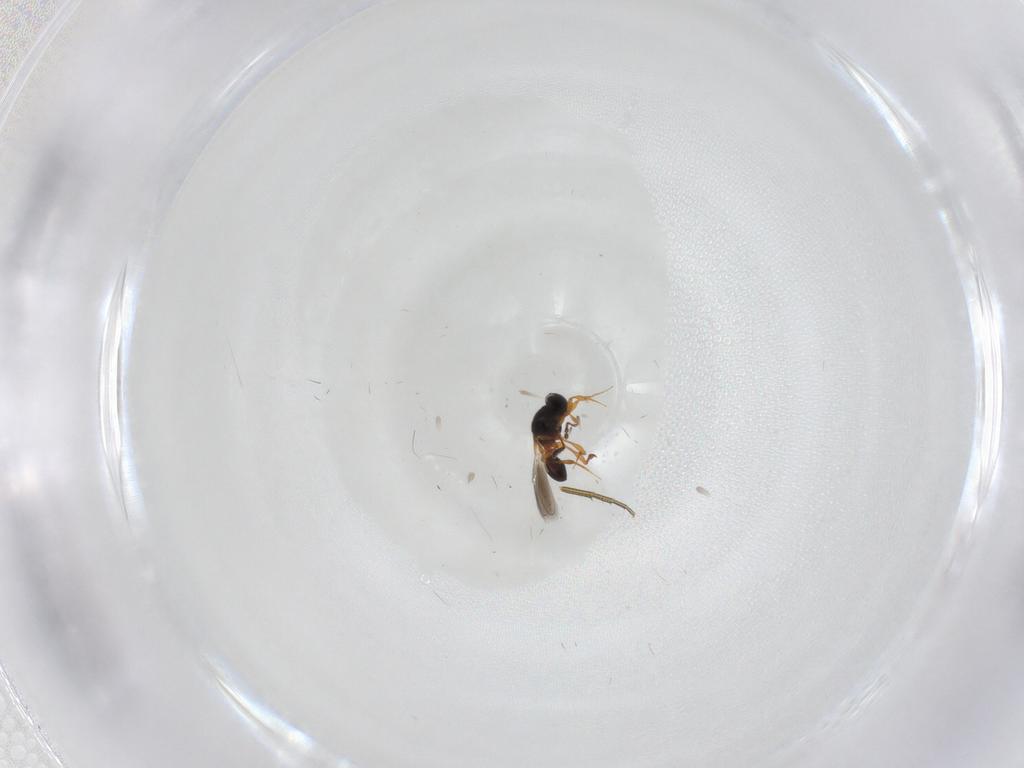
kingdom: Animalia
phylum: Arthropoda
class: Insecta
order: Hymenoptera
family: Platygastridae
